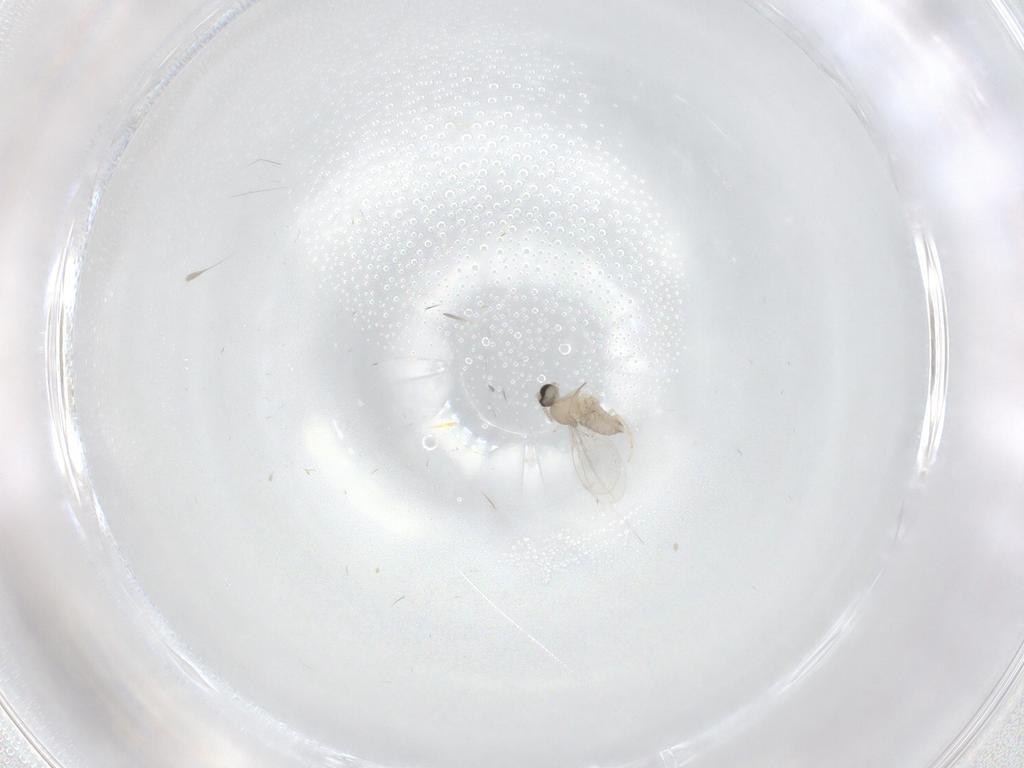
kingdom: Animalia
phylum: Arthropoda
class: Insecta
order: Diptera
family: Cecidomyiidae
